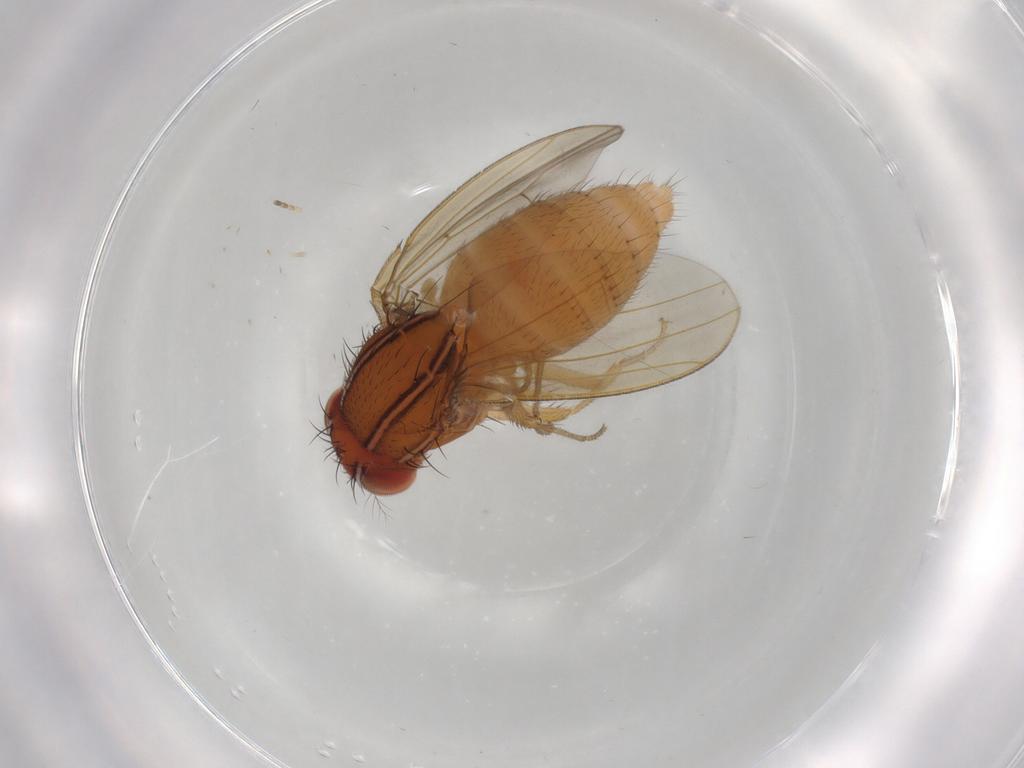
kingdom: Animalia
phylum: Arthropoda
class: Insecta
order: Diptera
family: Drosophilidae
